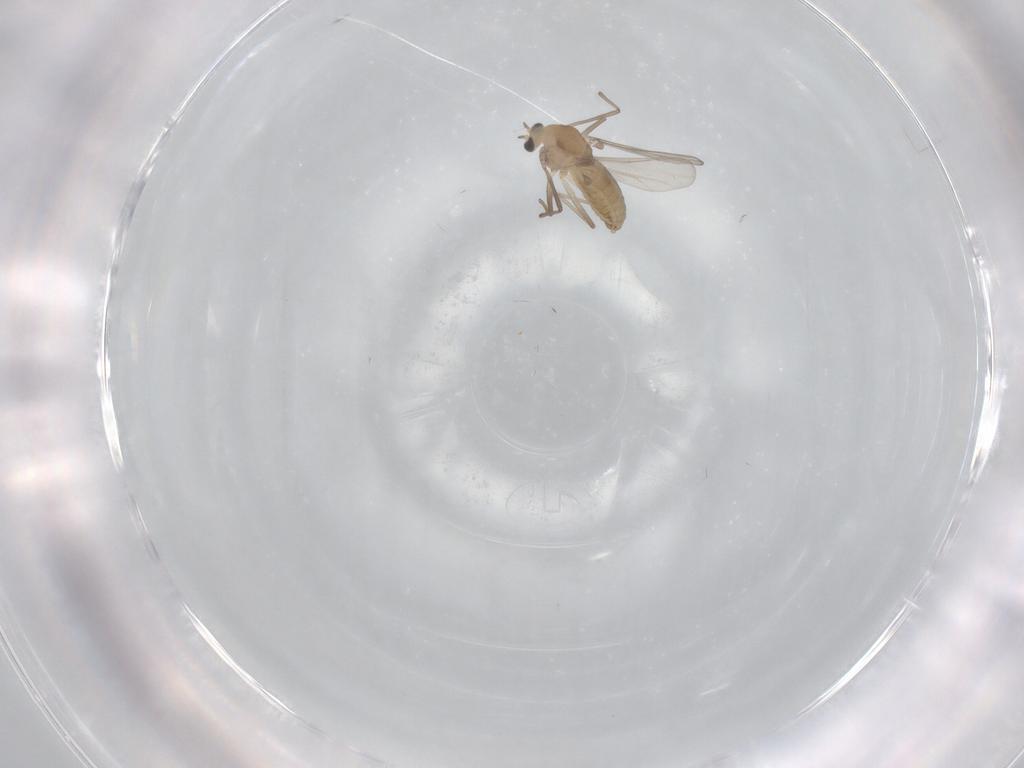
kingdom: Animalia
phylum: Arthropoda
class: Insecta
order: Diptera
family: Chironomidae
